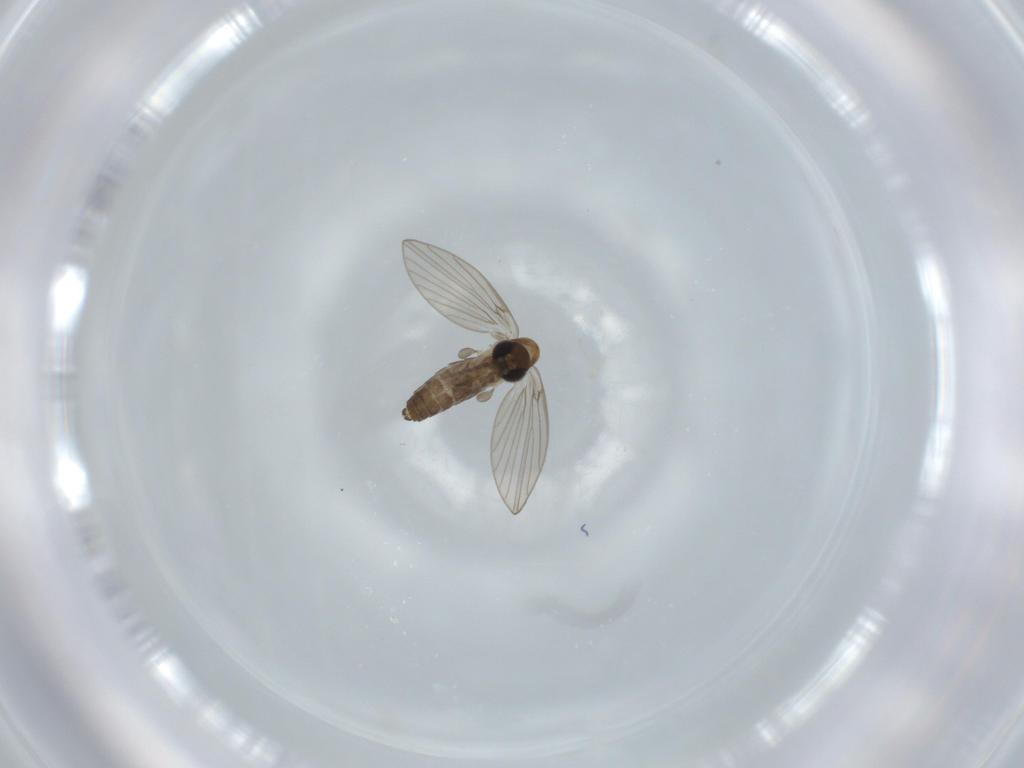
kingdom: Animalia
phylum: Arthropoda
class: Insecta
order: Diptera
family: Psychodidae
